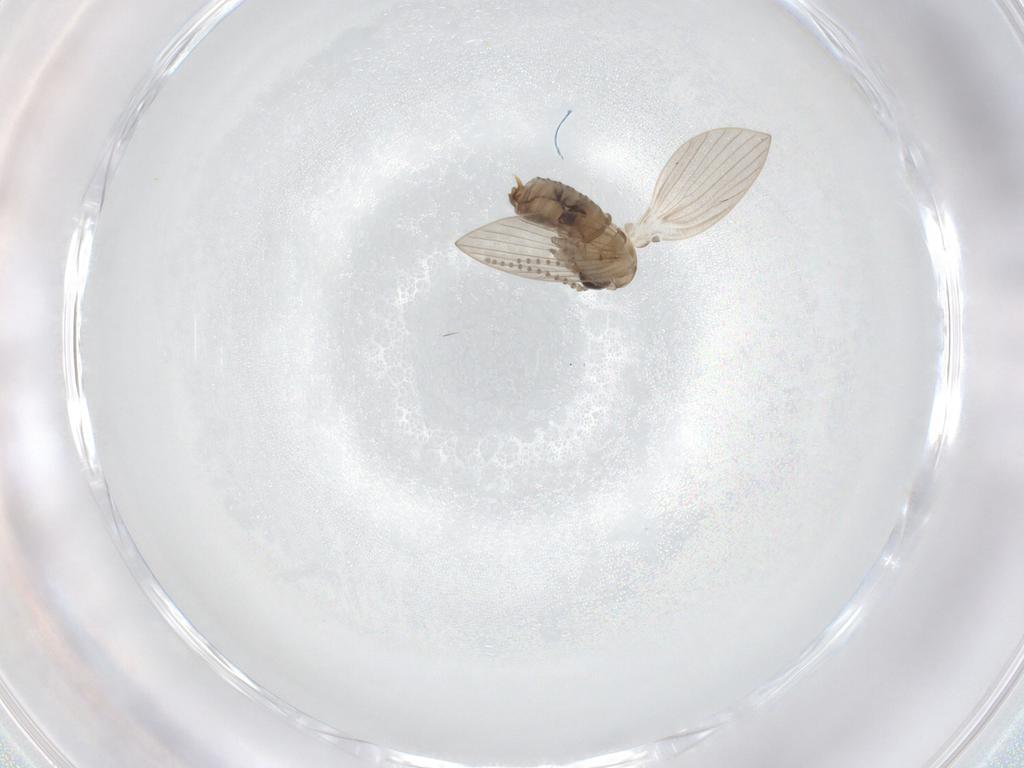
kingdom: Animalia
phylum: Arthropoda
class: Insecta
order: Diptera
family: Psychodidae
